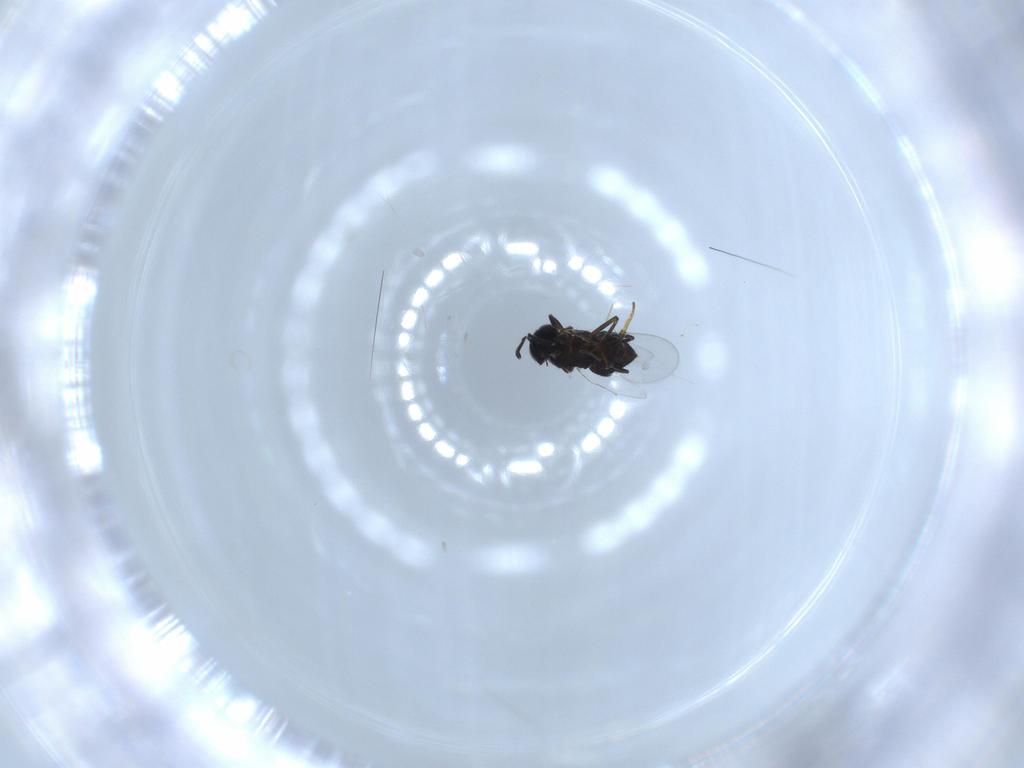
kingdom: Animalia
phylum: Arthropoda
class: Insecta
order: Hymenoptera
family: Encyrtidae
